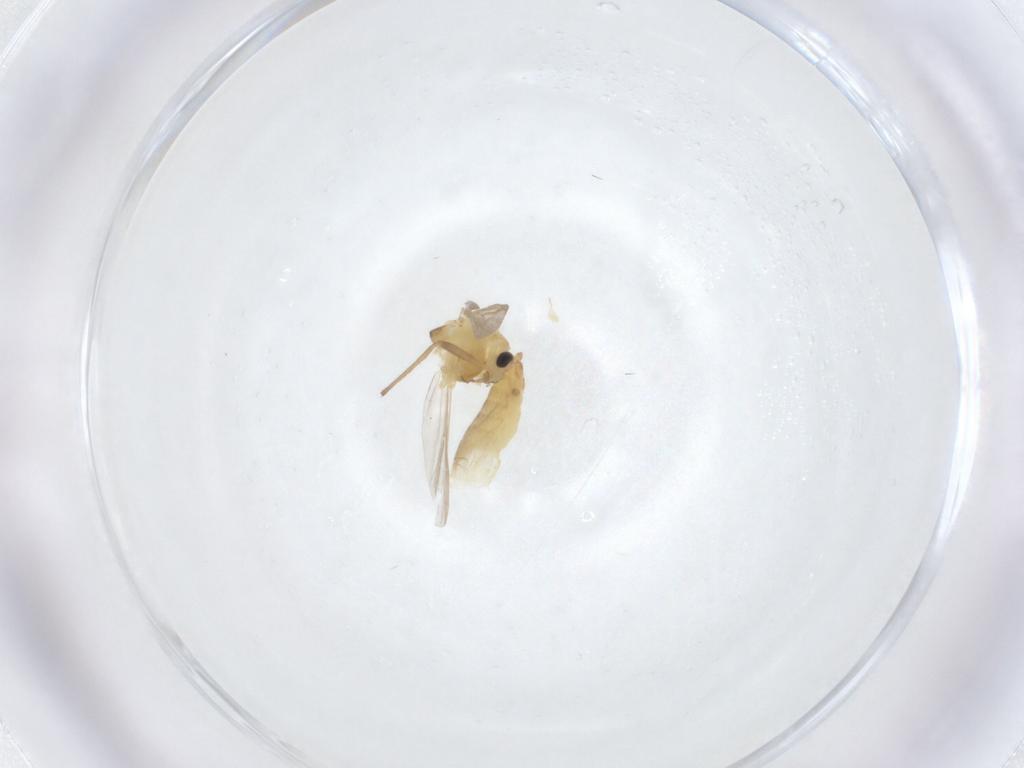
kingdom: Animalia
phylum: Arthropoda
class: Insecta
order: Diptera
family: Chironomidae
